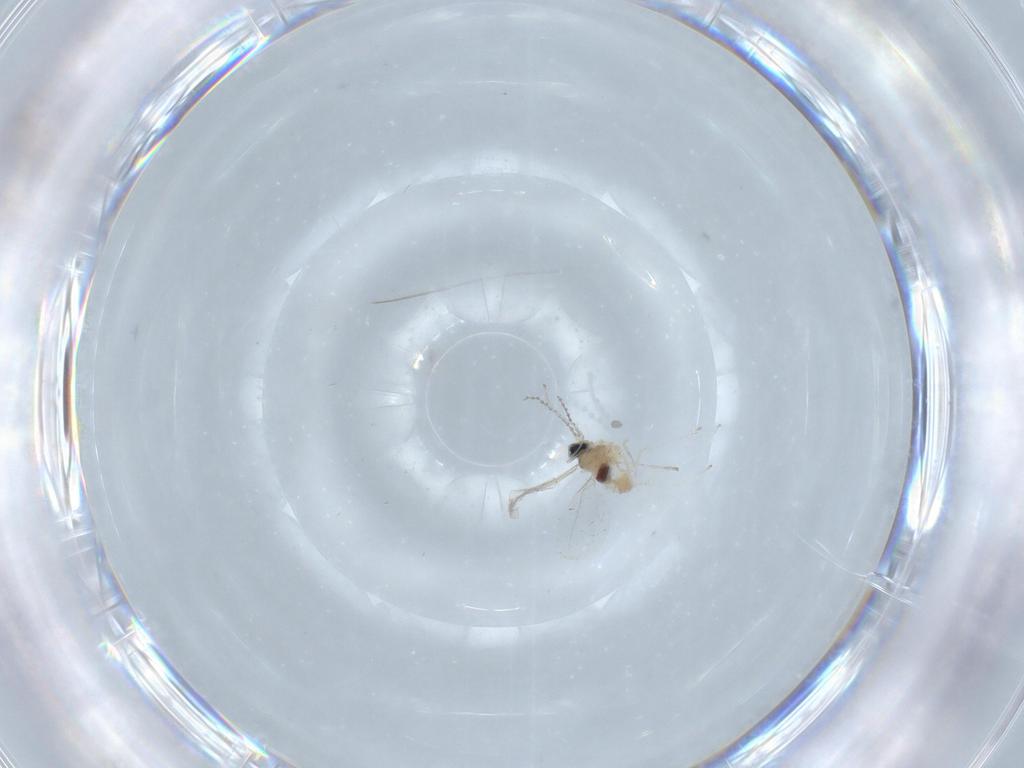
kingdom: Animalia
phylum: Arthropoda
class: Insecta
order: Diptera
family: Cecidomyiidae
